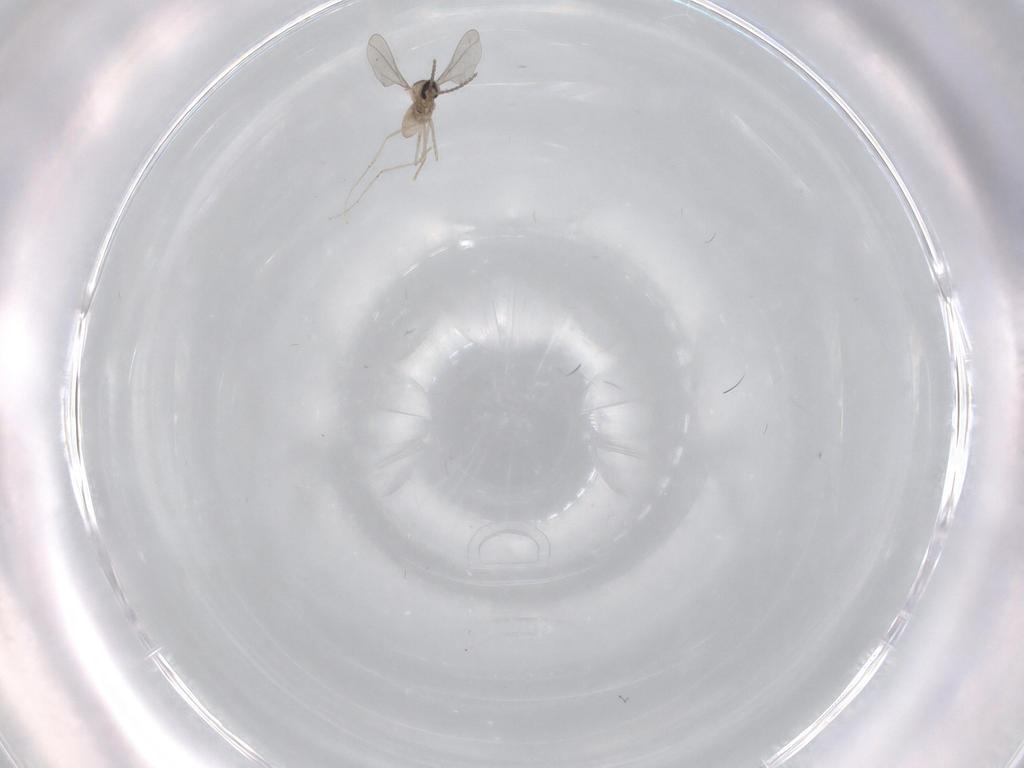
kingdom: Animalia
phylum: Arthropoda
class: Insecta
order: Diptera
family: Cecidomyiidae
